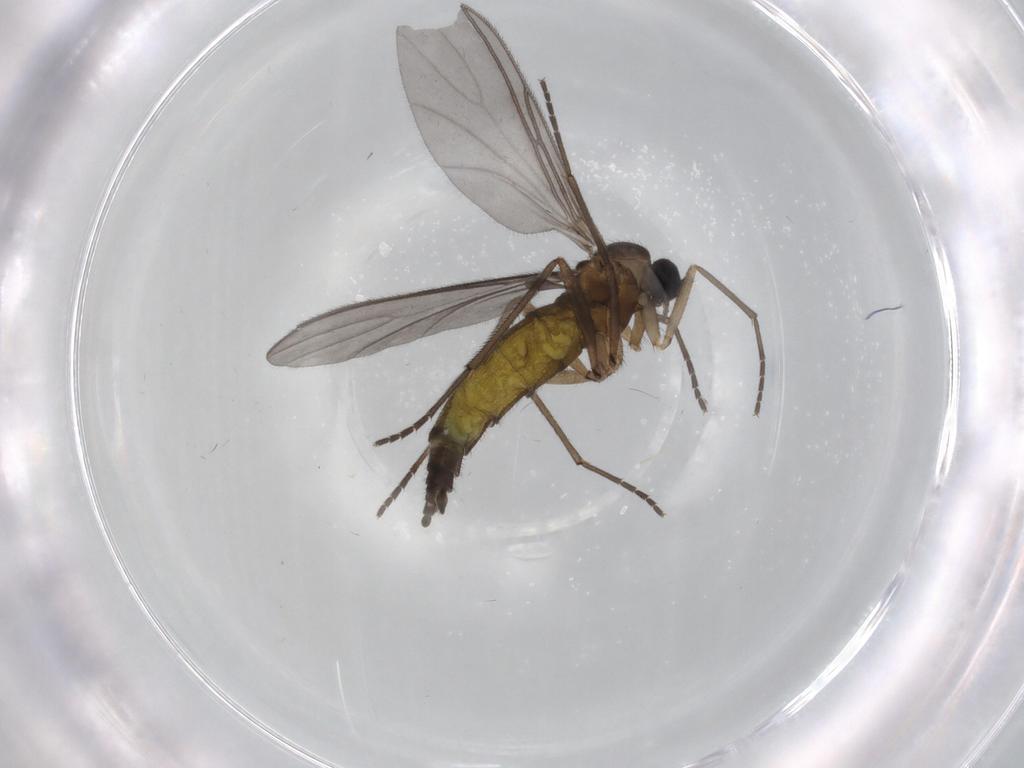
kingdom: Animalia
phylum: Arthropoda
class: Insecta
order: Diptera
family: Sciaridae
